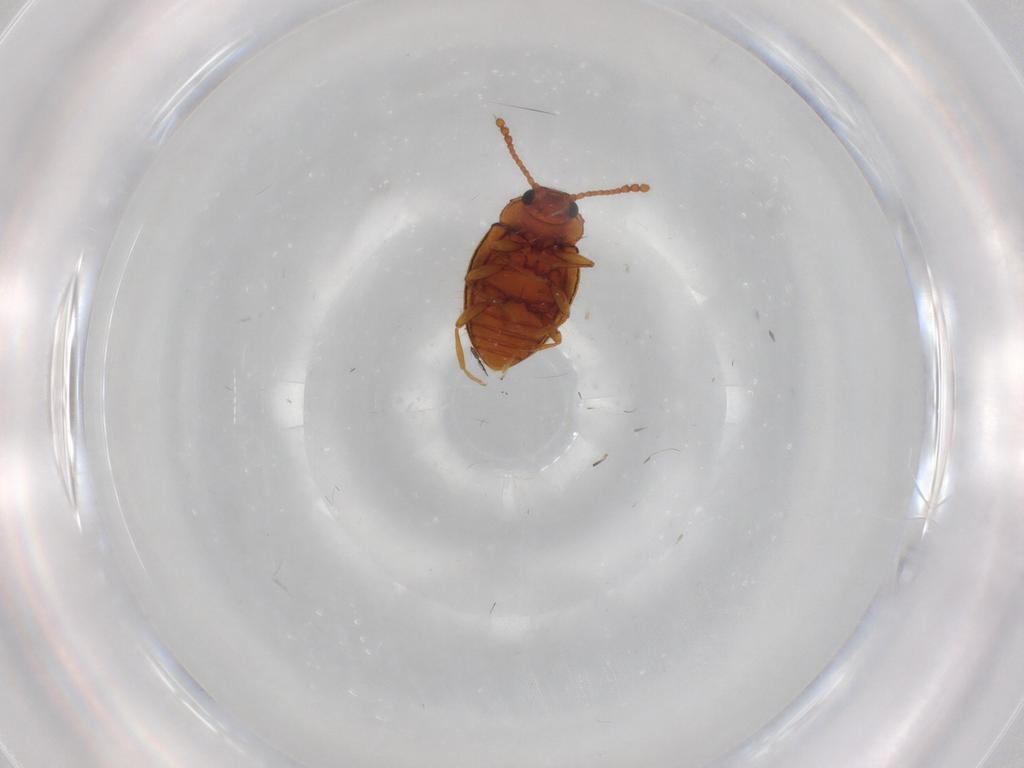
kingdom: Animalia
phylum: Arthropoda
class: Insecta
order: Coleoptera
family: Erotylidae
